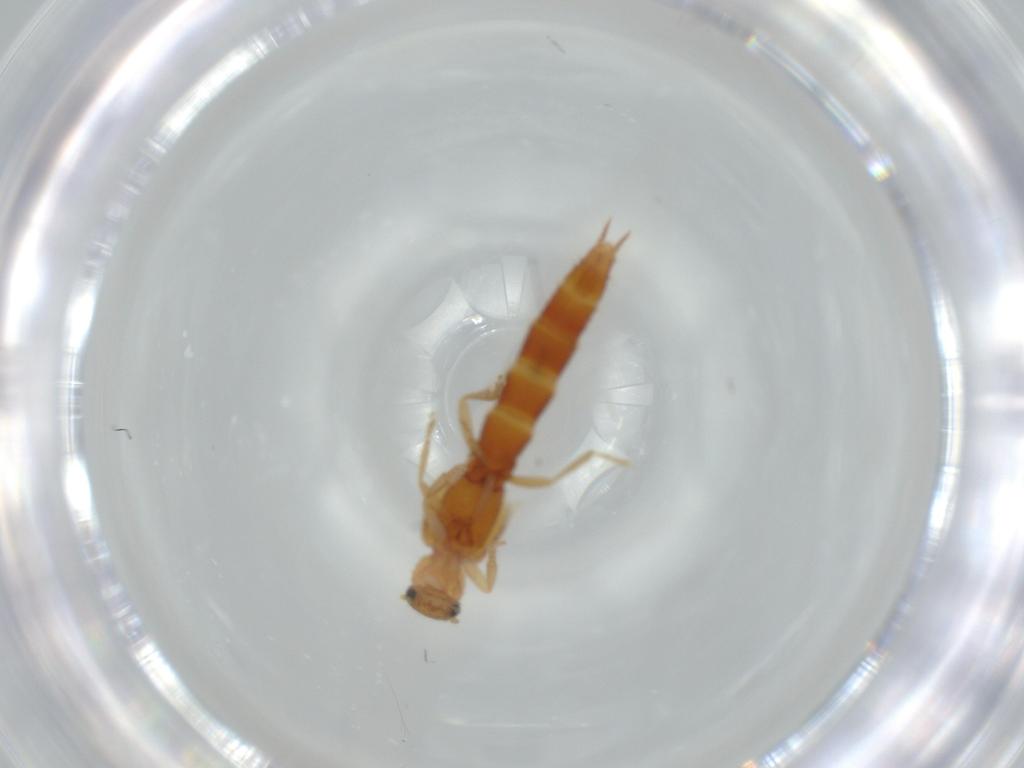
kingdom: Animalia
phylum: Arthropoda
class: Insecta
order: Coleoptera
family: Staphylinidae
